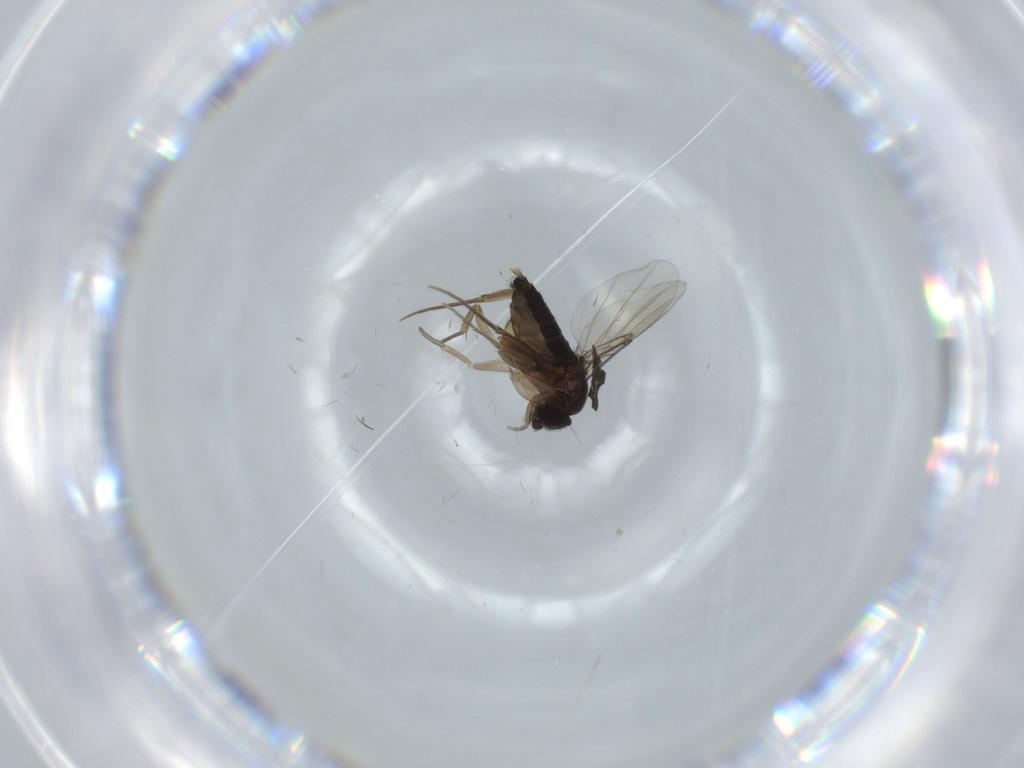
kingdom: Animalia
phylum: Arthropoda
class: Insecta
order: Diptera
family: Phoridae
